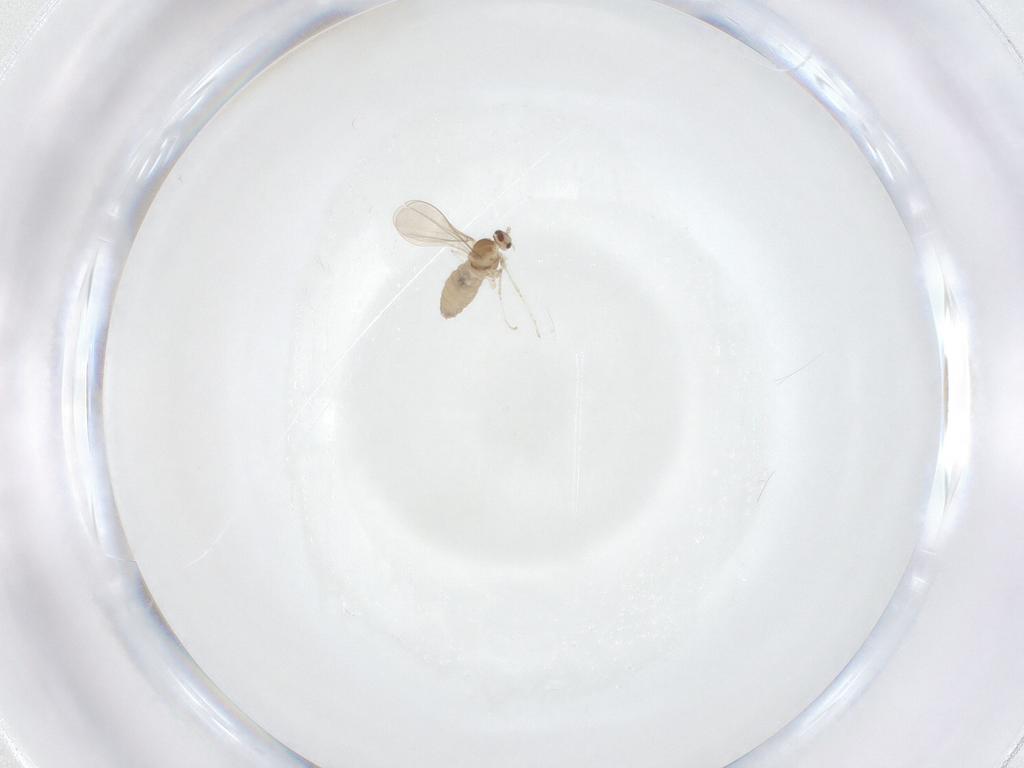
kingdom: Animalia
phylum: Arthropoda
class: Insecta
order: Diptera
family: Cecidomyiidae
